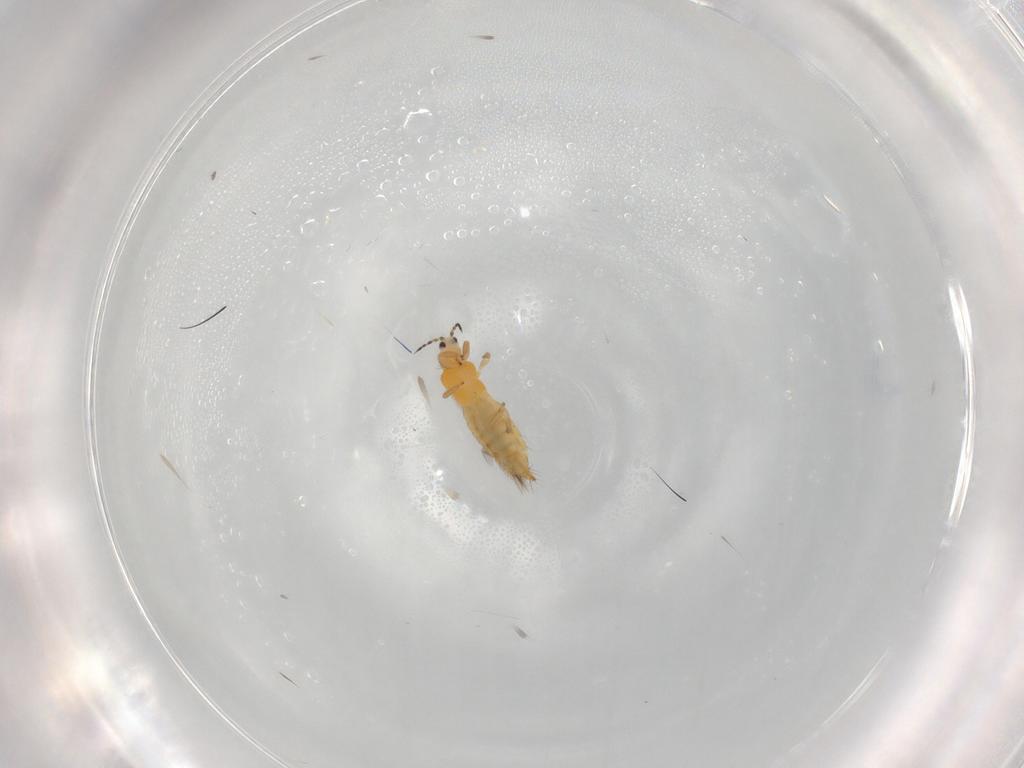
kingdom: Animalia
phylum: Arthropoda
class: Insecta
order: Thysanoptera
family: Thripidae
